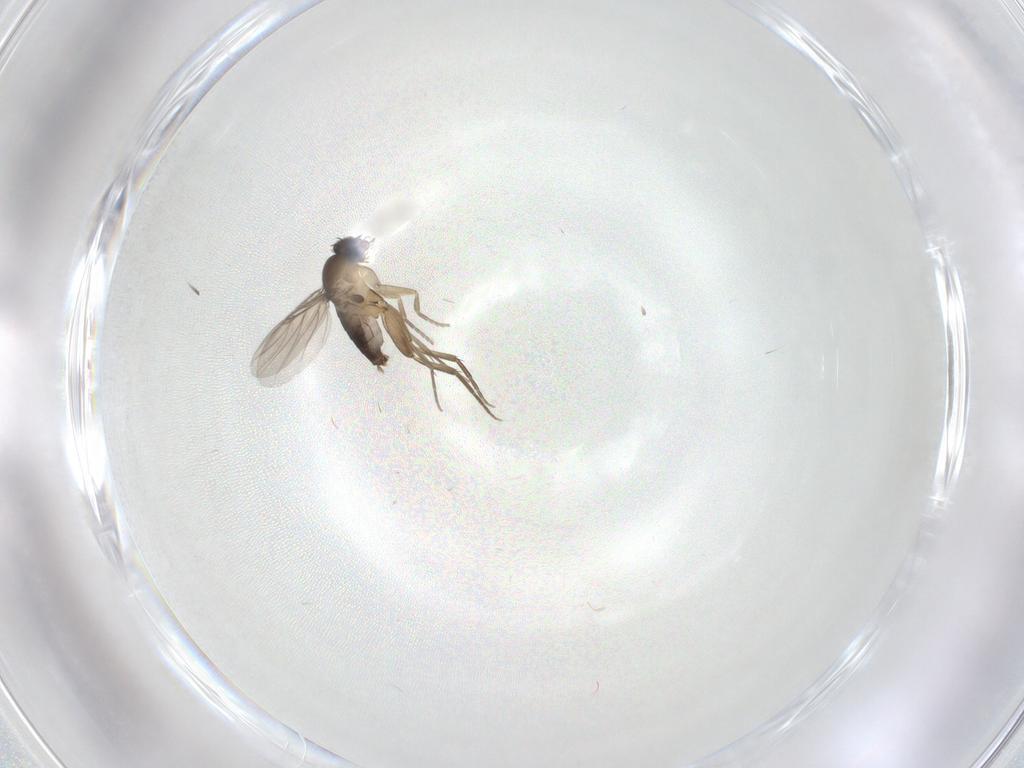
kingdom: Animalia
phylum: Arthropoda
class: Insecta
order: Diptera
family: Phoridae
